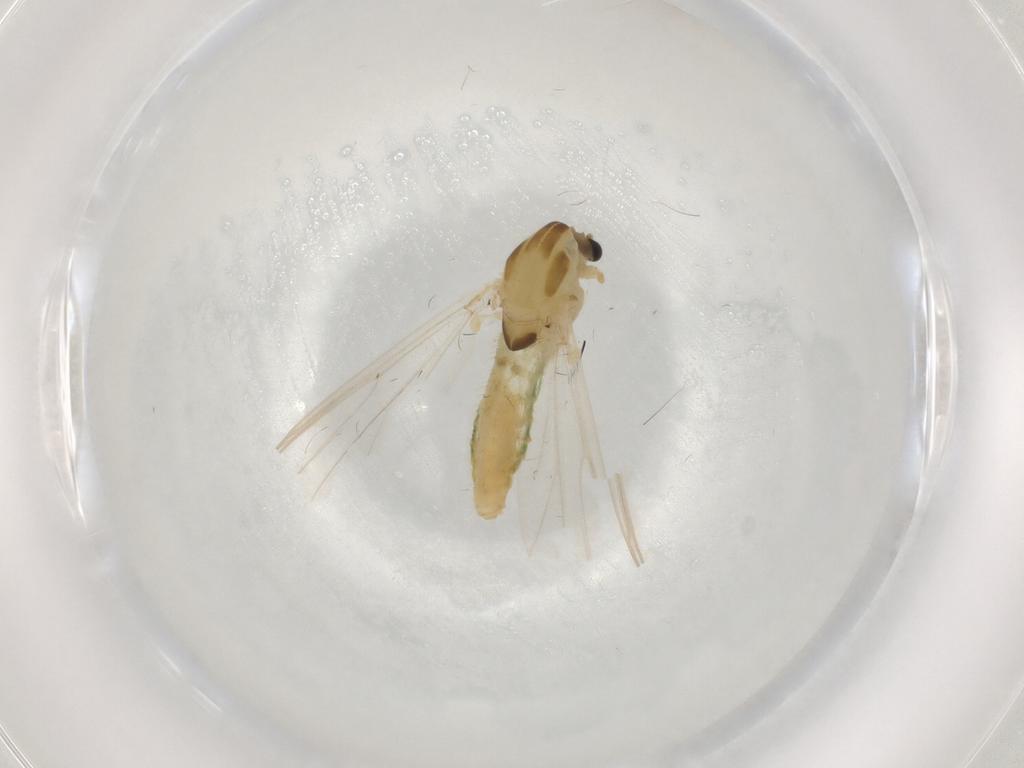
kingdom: Animalia
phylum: Arthropoda
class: Insecta
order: Diptera
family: Chironomidae
